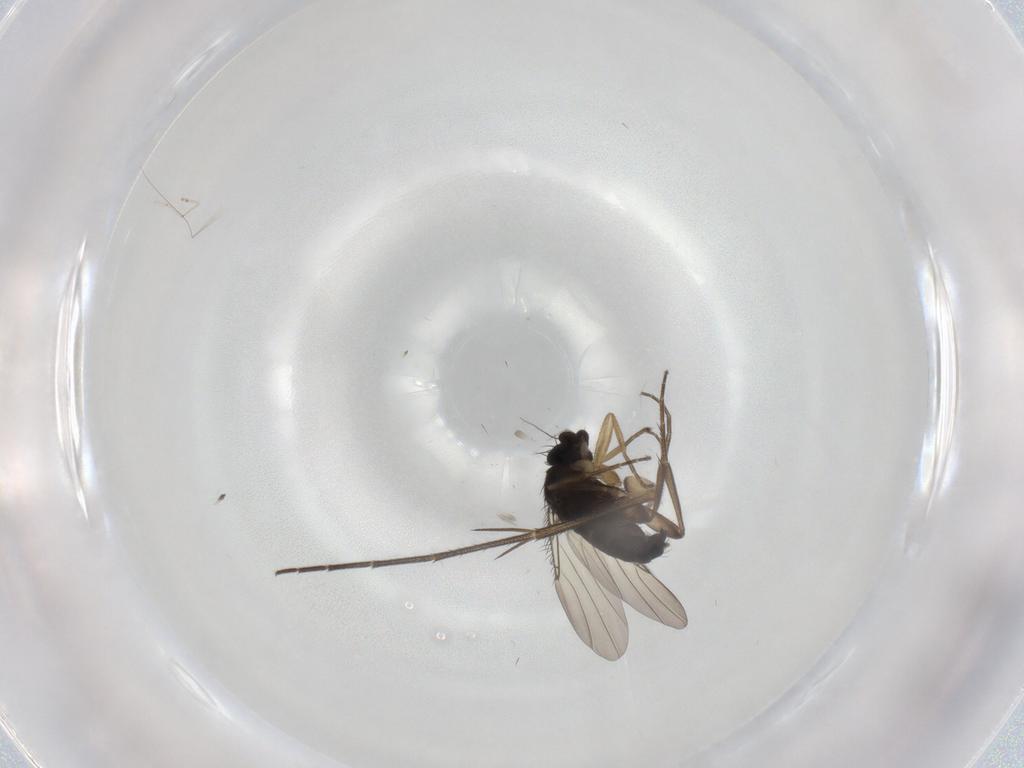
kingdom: Animalia
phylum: Arthropoda
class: Insecta
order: Diptera
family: Phoridae
